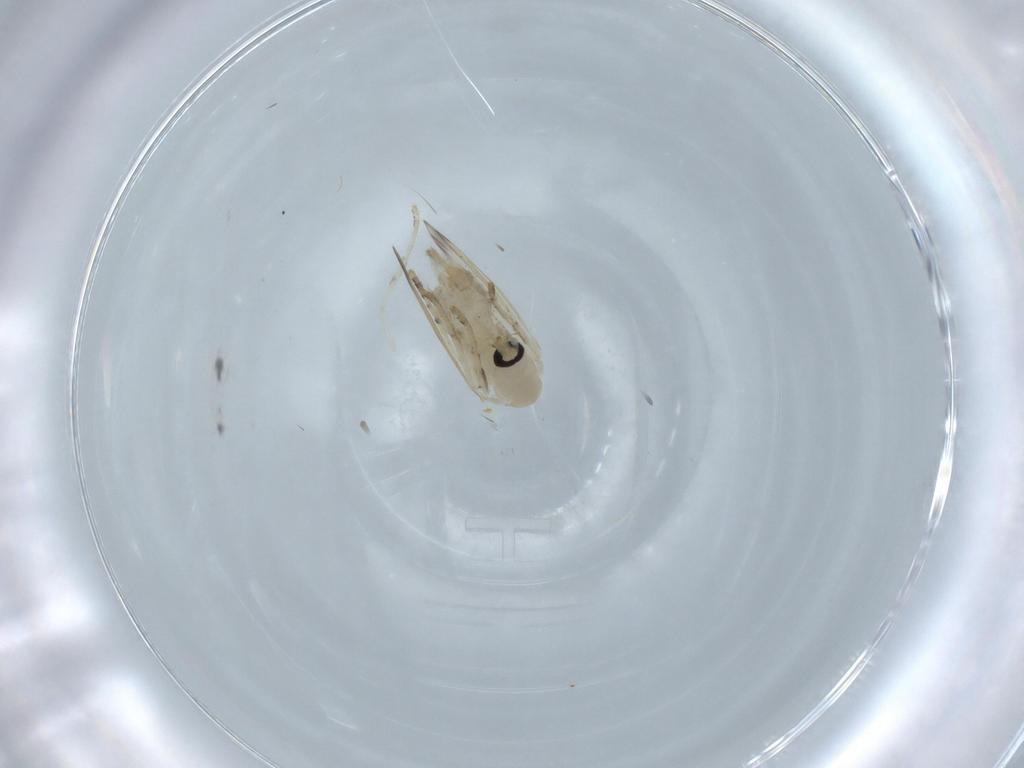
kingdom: Animalia
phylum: Arthropoda
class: Insecta
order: Diptera
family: Psychodidae
